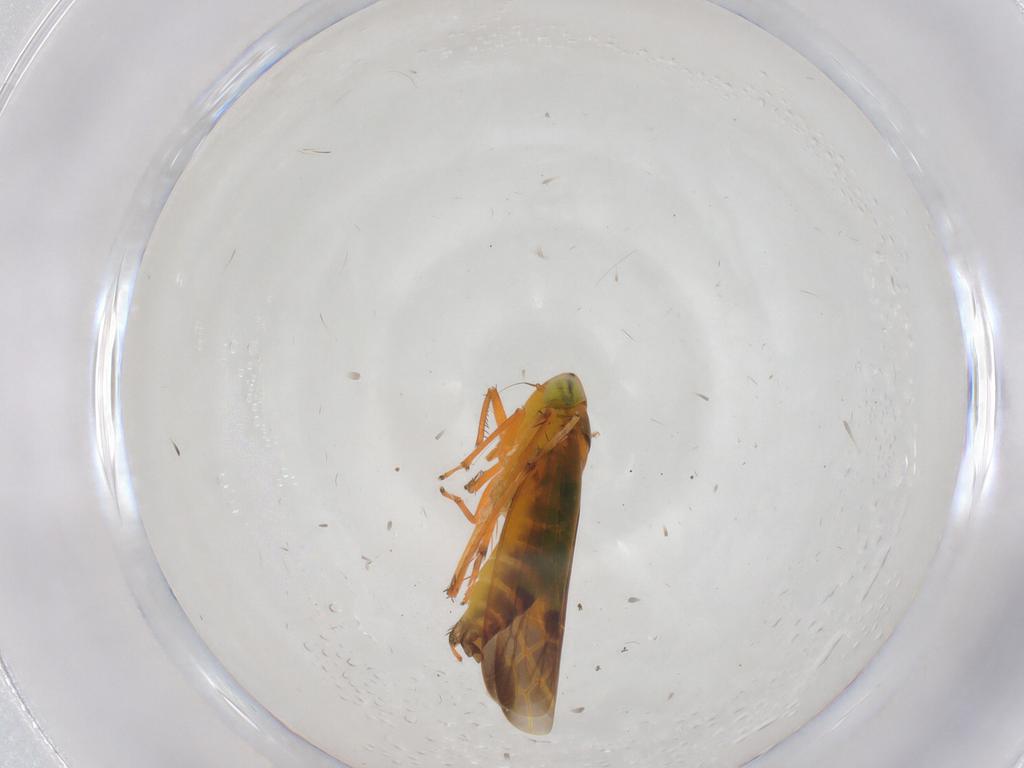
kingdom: Animalia
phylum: Arthropoda
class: Insecta
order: Hemiptera
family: Cicadellidae
